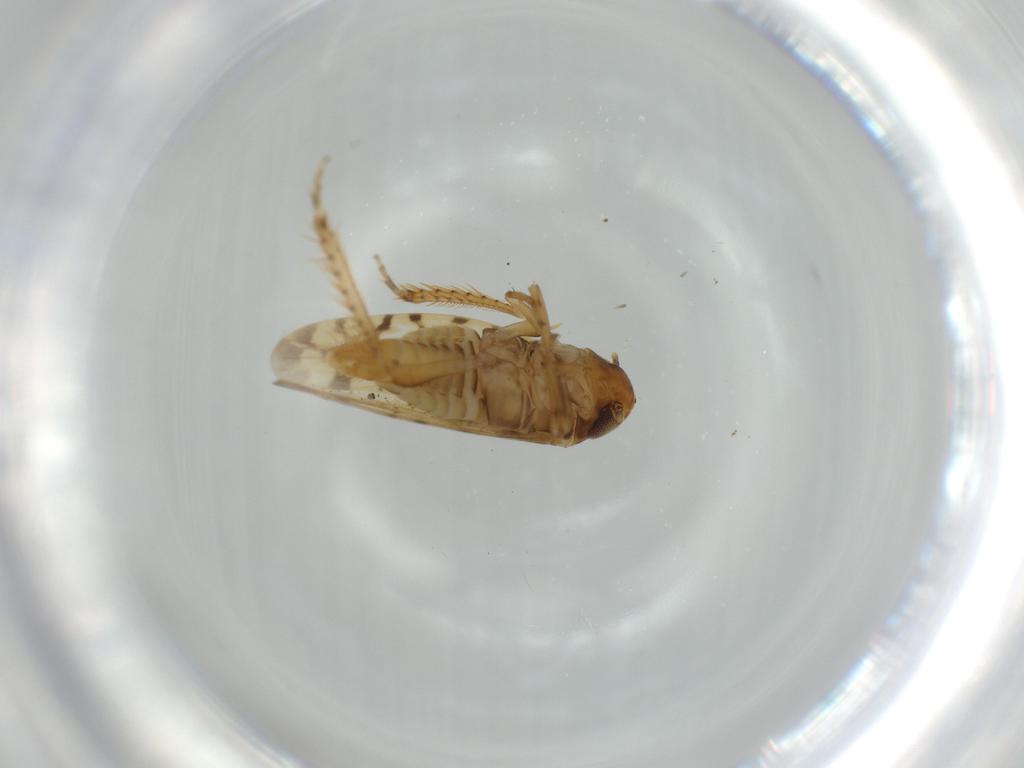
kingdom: Animalia
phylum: Arthropoda
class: Insecta
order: Hemiptera
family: Cicadellidae
